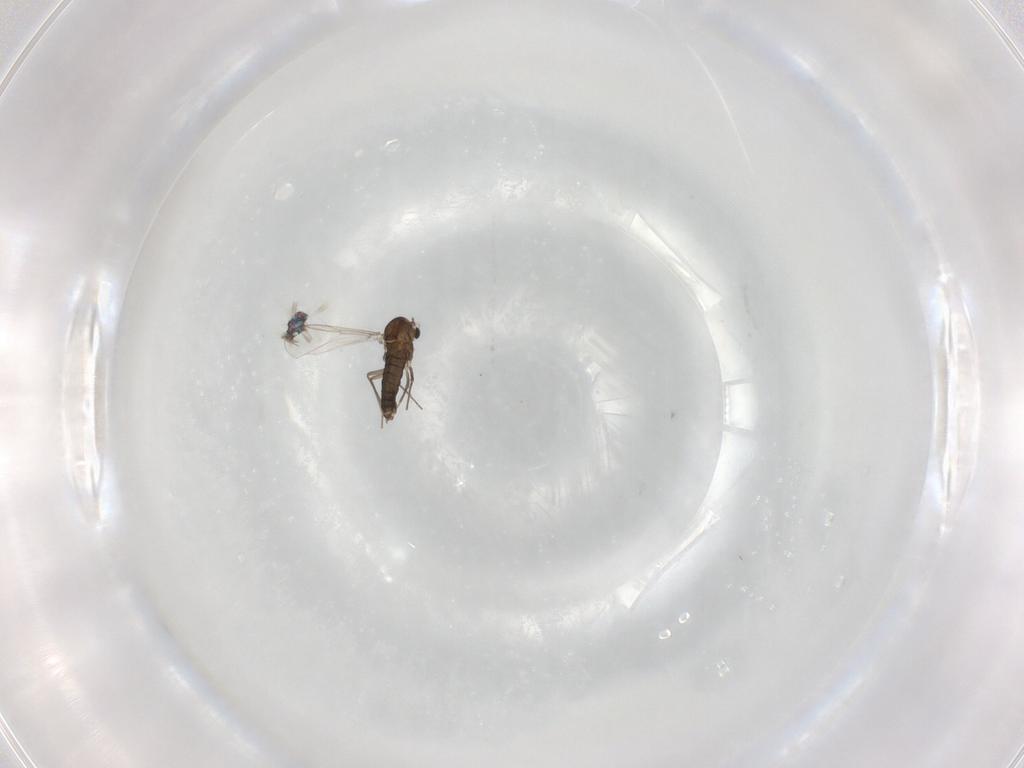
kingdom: Animalia
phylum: Arthropoda
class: Insecta
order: Diptera
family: Chironomidae
